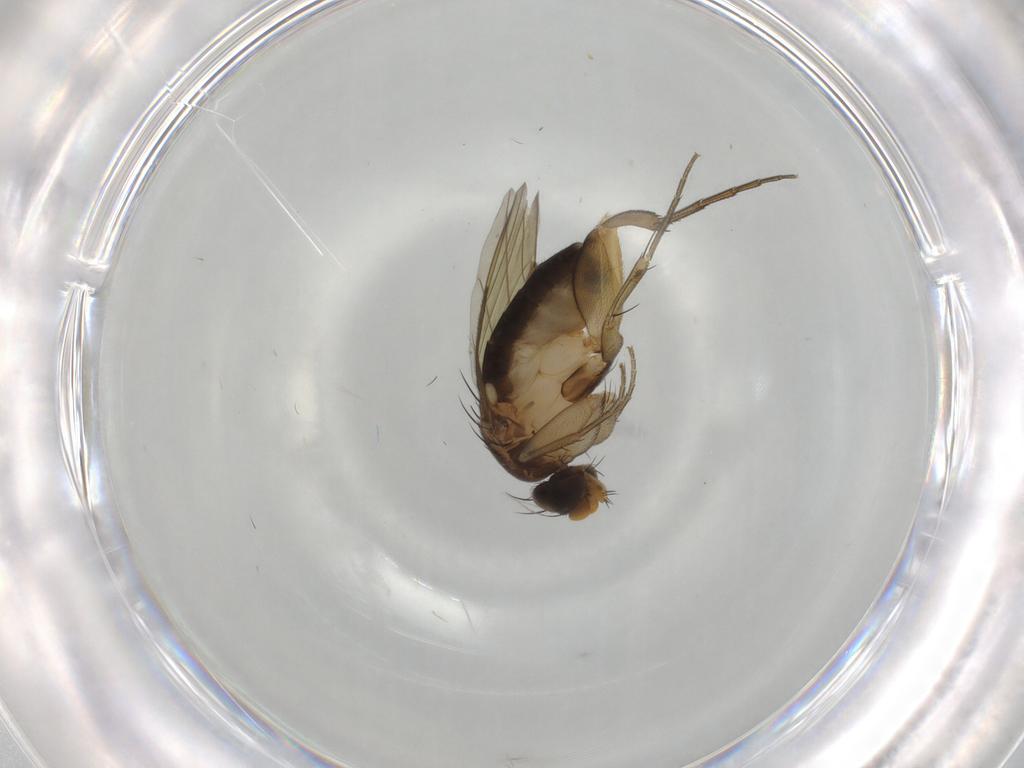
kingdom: Animalia
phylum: Arthropoda
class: Insecta
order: Diptera
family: Phoridae
